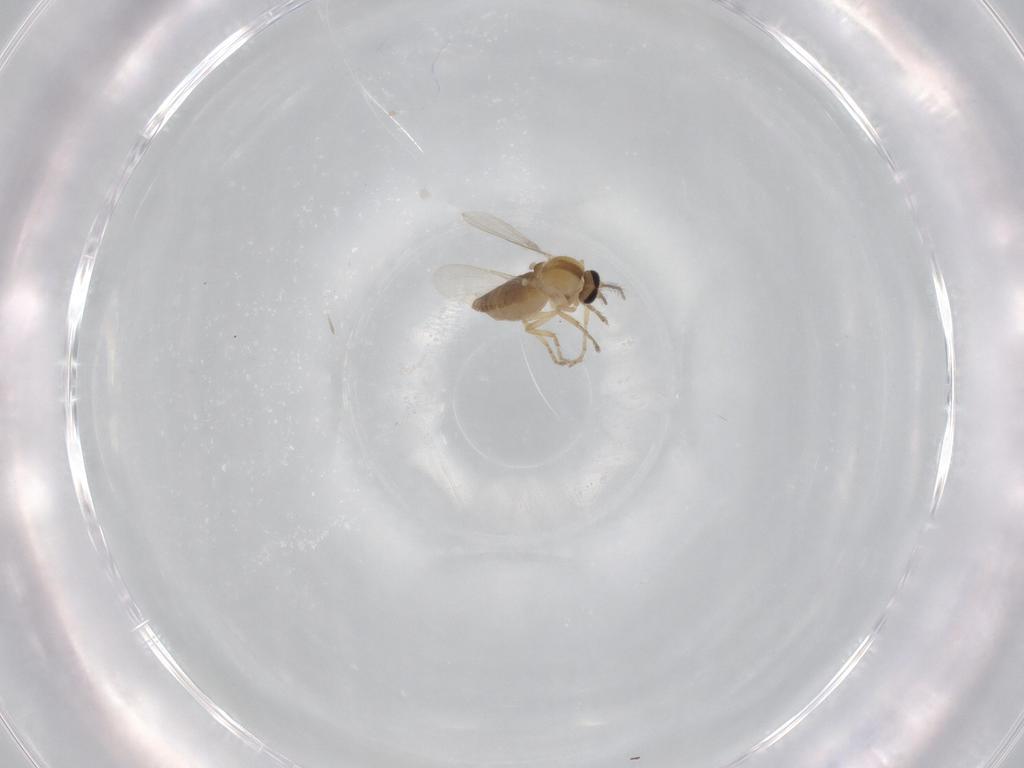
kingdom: Animalia
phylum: Arthropoda
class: Insecta
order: Diptera
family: Ceratopogonidae
